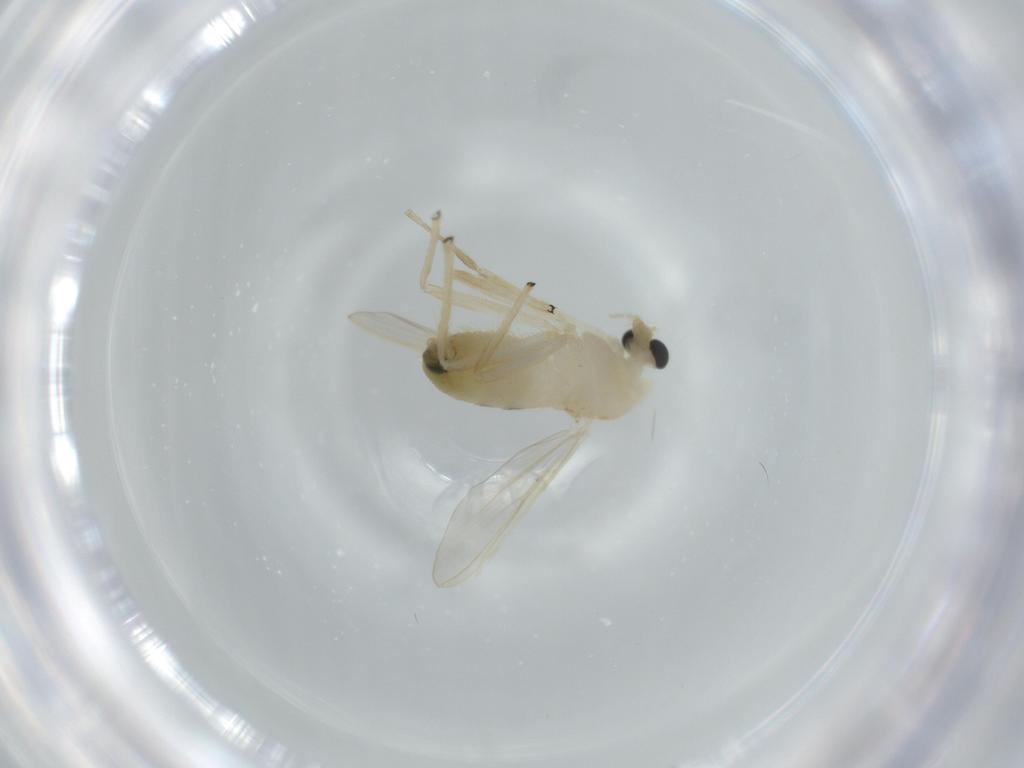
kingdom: Animalia
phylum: Arthropoda
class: Insecta
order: Diptera
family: Chironomidae
